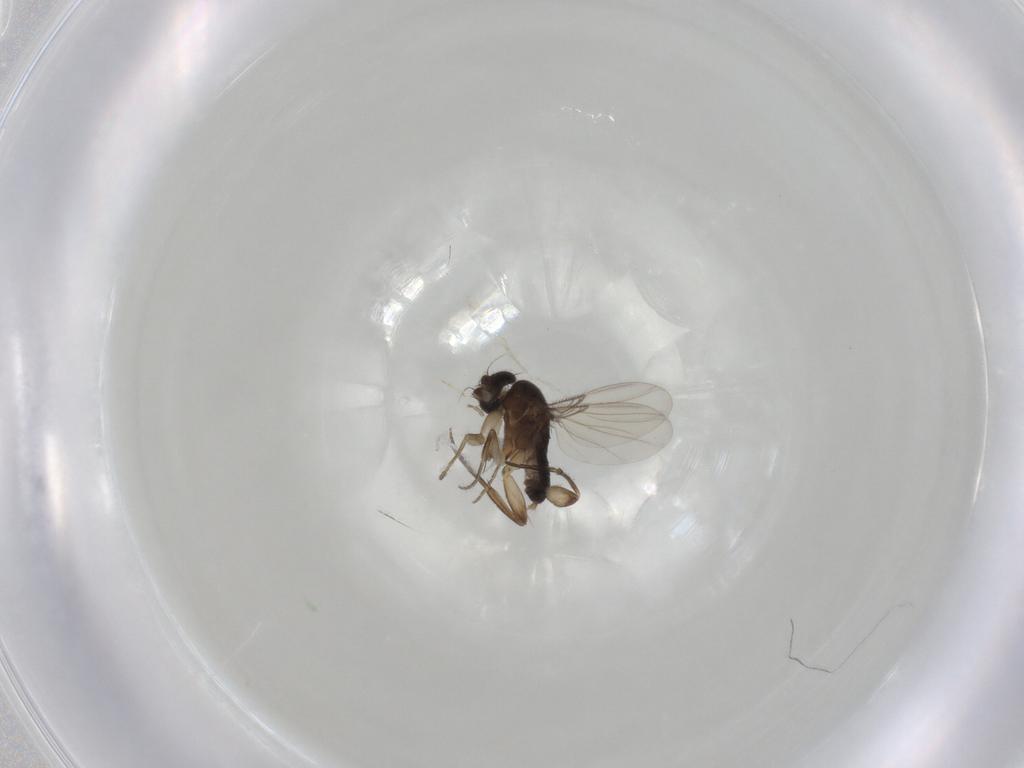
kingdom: Animalia
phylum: Arthropoda
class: Insecta
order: Diptera
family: Phoridae
